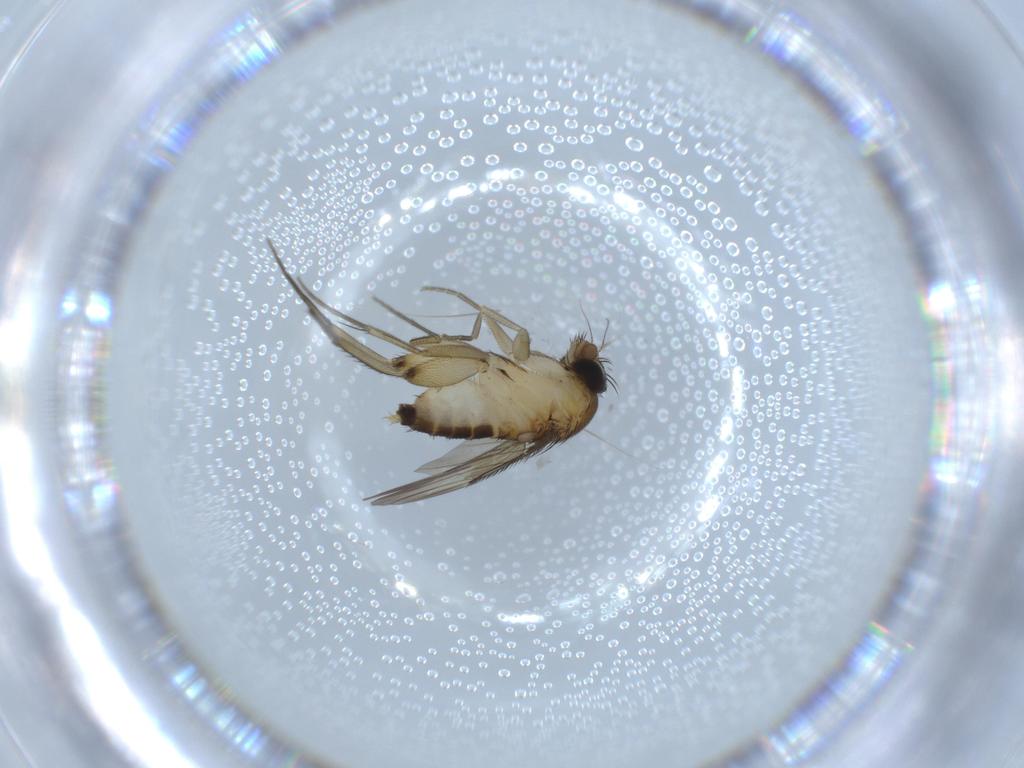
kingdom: Animalia
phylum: Arthropoda
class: Insecta
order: Diptera
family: Phoridae
